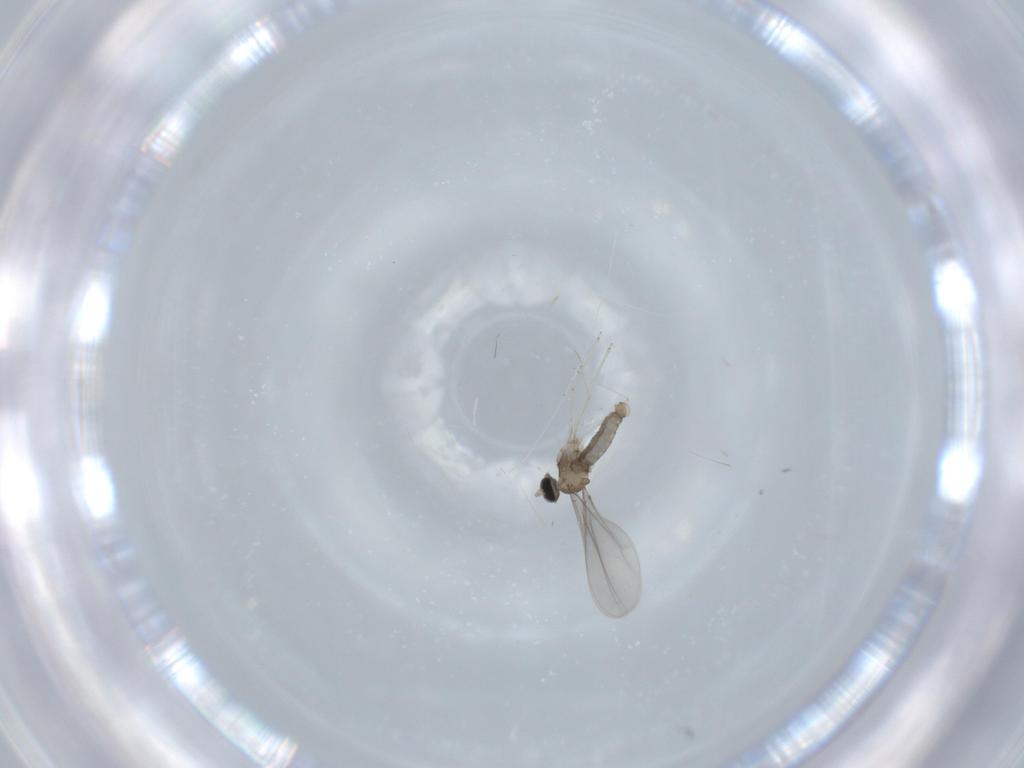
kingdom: Animalia
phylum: Arthropoda
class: Insecta
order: Diptera
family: Cecidomyiidae
